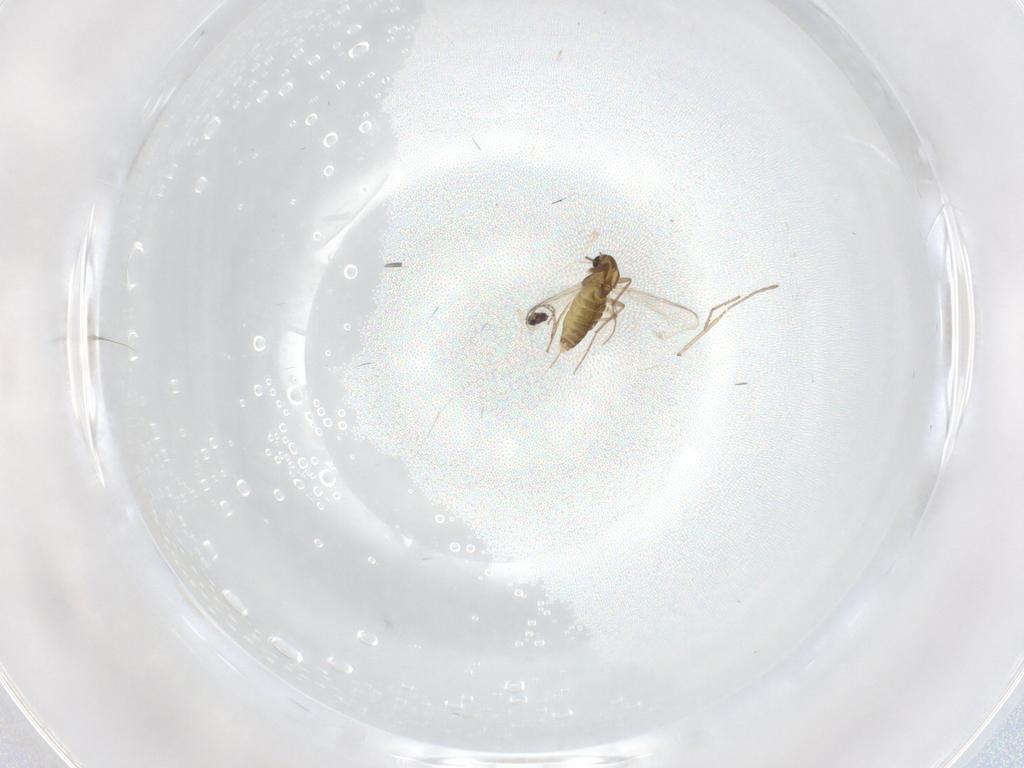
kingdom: Animalia
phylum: Arthropoda
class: Insecta
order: Diptera
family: Chironomidae
